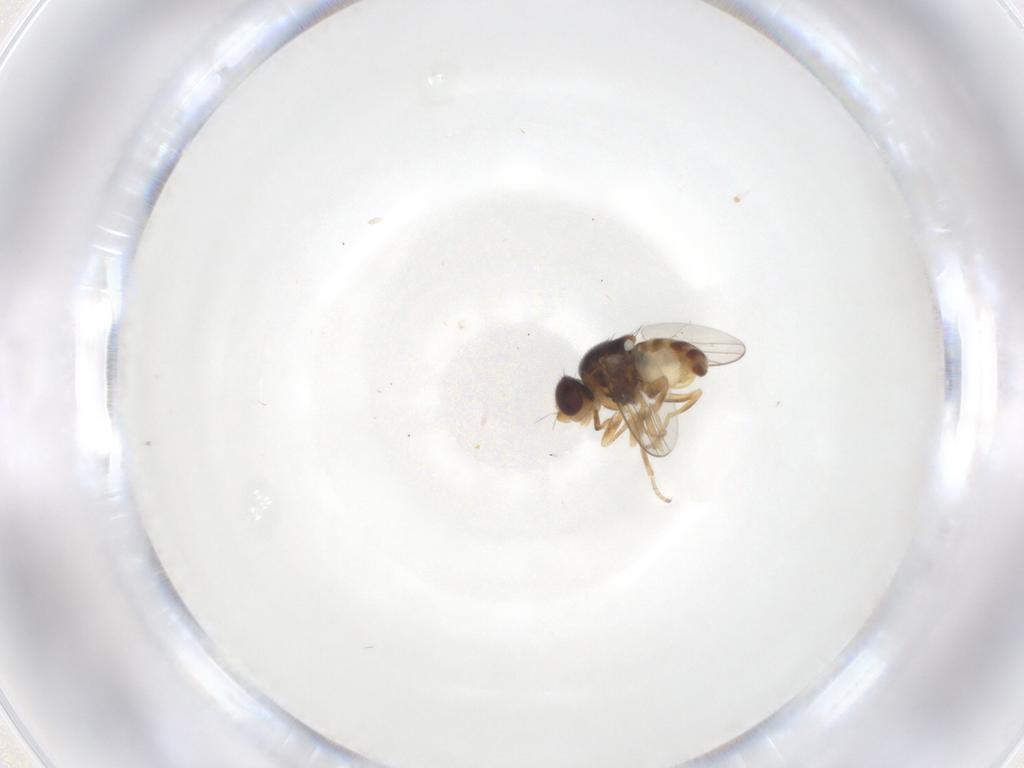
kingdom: Animalia
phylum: Arthropoda
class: Insecta
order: Diptera
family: Chloropidae
